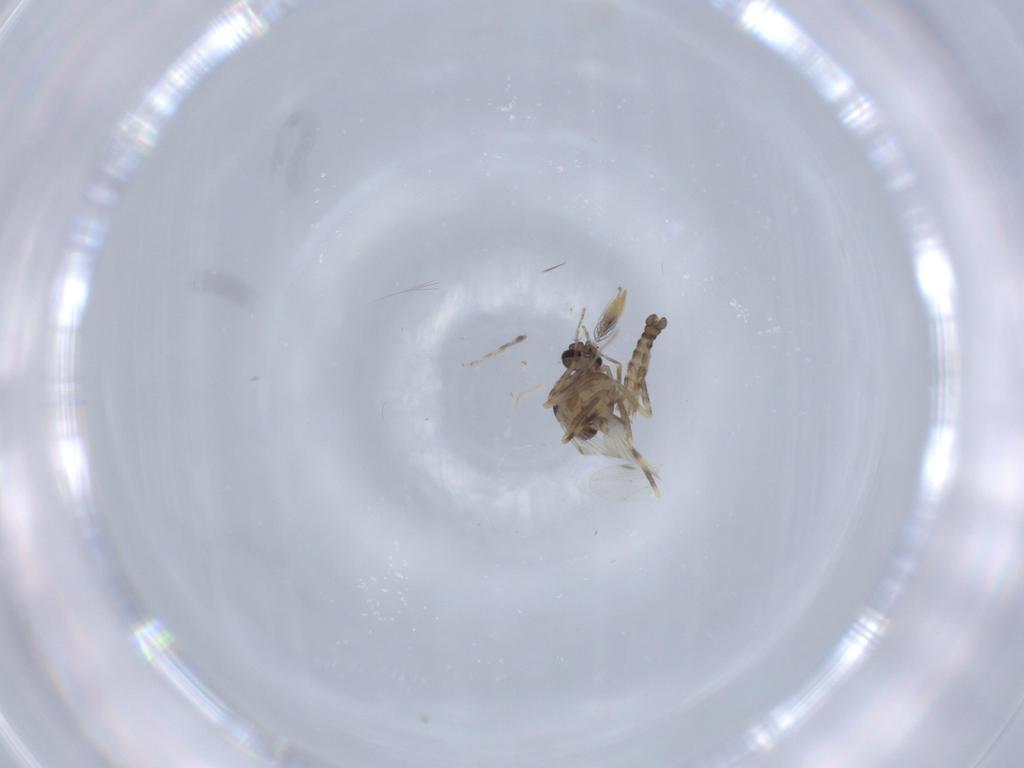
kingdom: Animalia
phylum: Arthropoda
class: Insecta
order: Diptera
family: Ceratopogonidae
